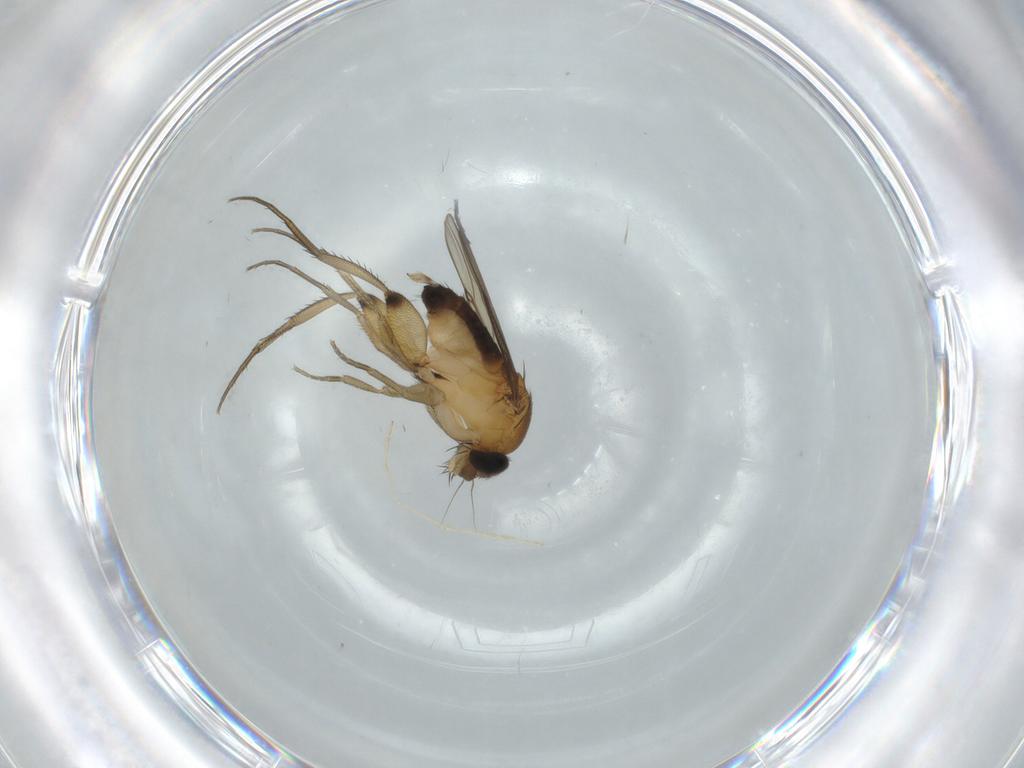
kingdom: Animalia
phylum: Arthropoda
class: Insecta
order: Diptera
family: Phoridae
